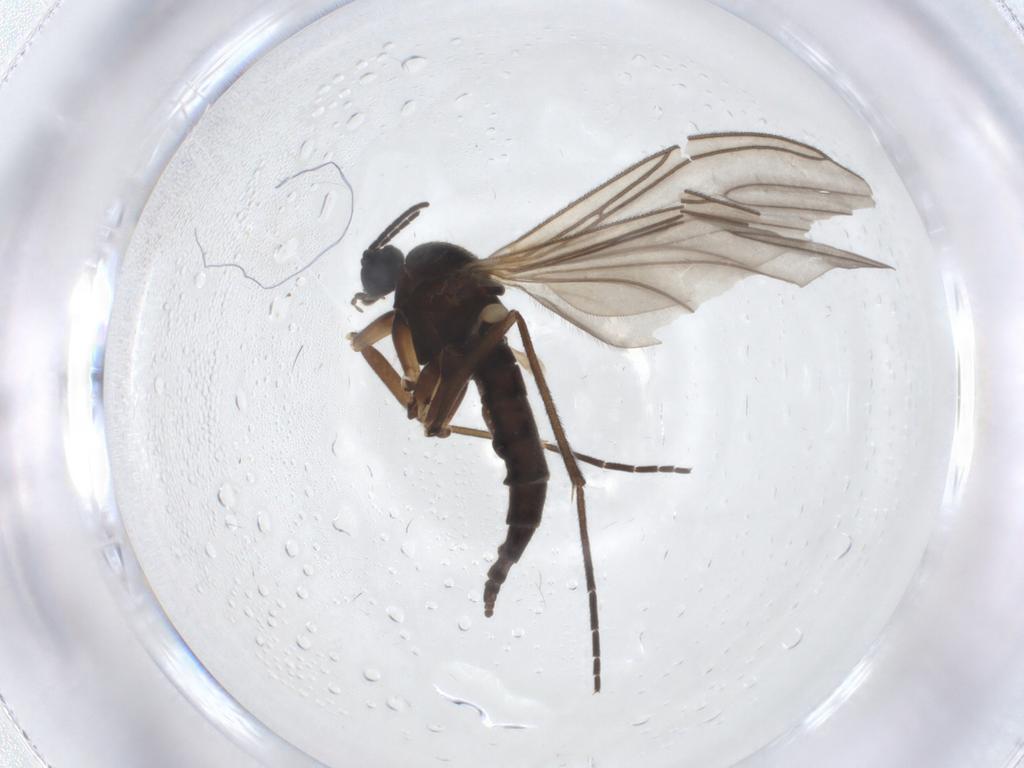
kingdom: Animalia
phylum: Arthropoda
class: Insecta
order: Diptera
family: Sciaridae
